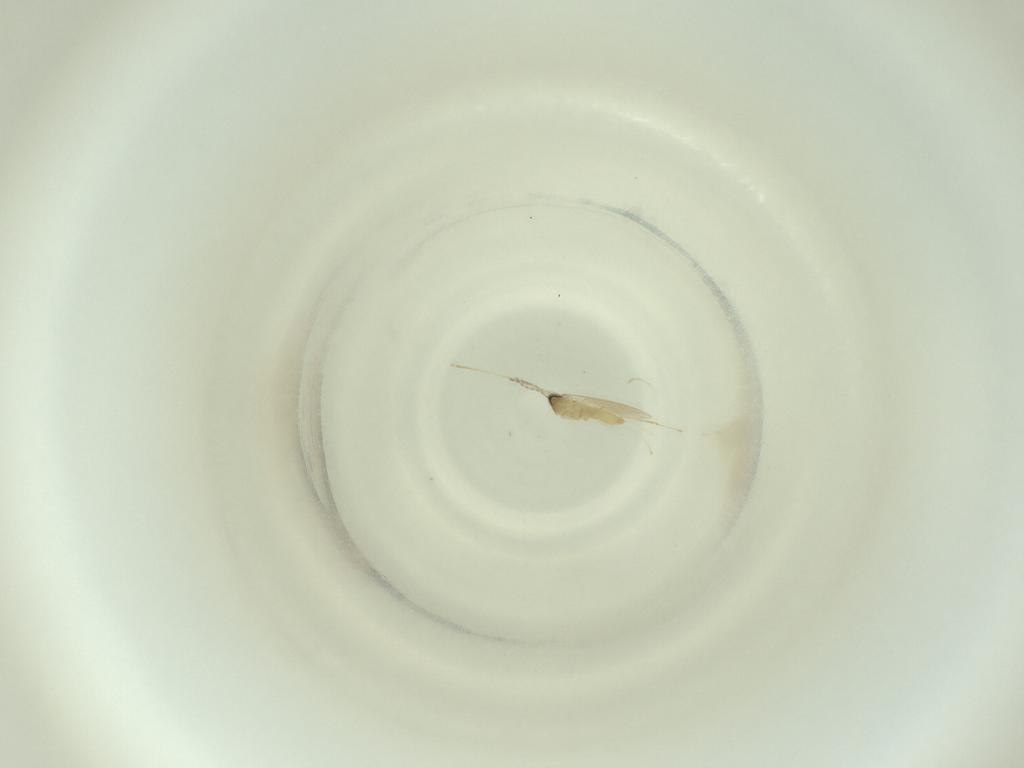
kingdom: Animalia
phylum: Arthropoda
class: Insecta
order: Diptera
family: Cecidomyiidae
